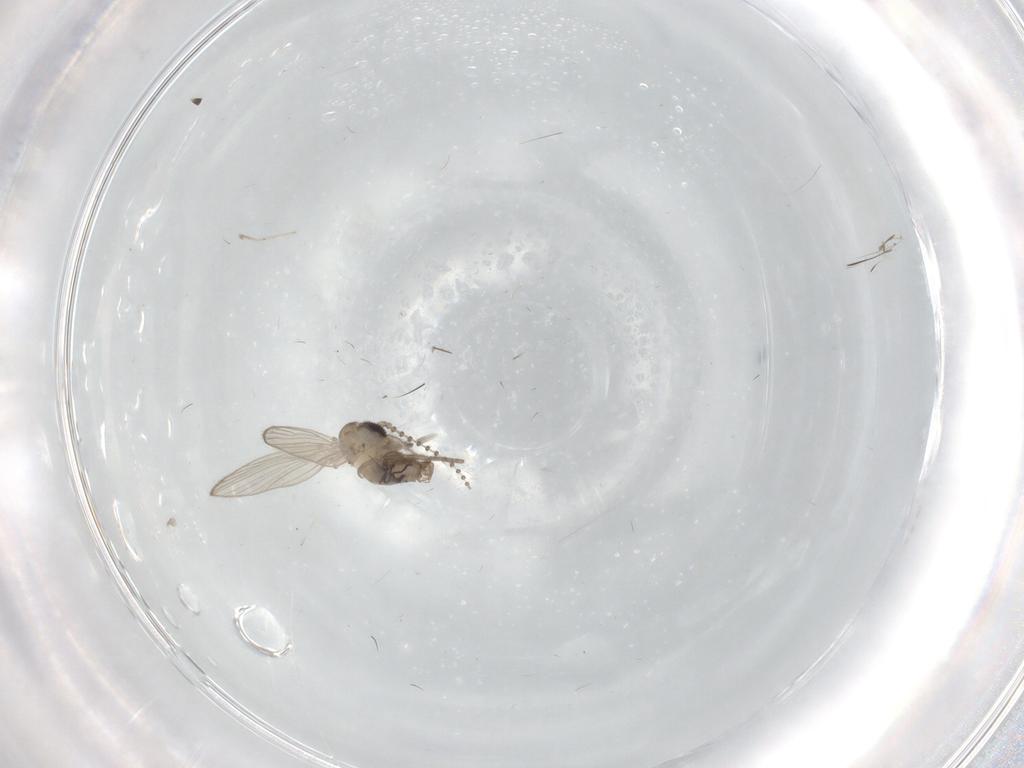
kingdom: Animalia
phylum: Arthropoda
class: Insecta
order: Diptera
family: Psychodidae
